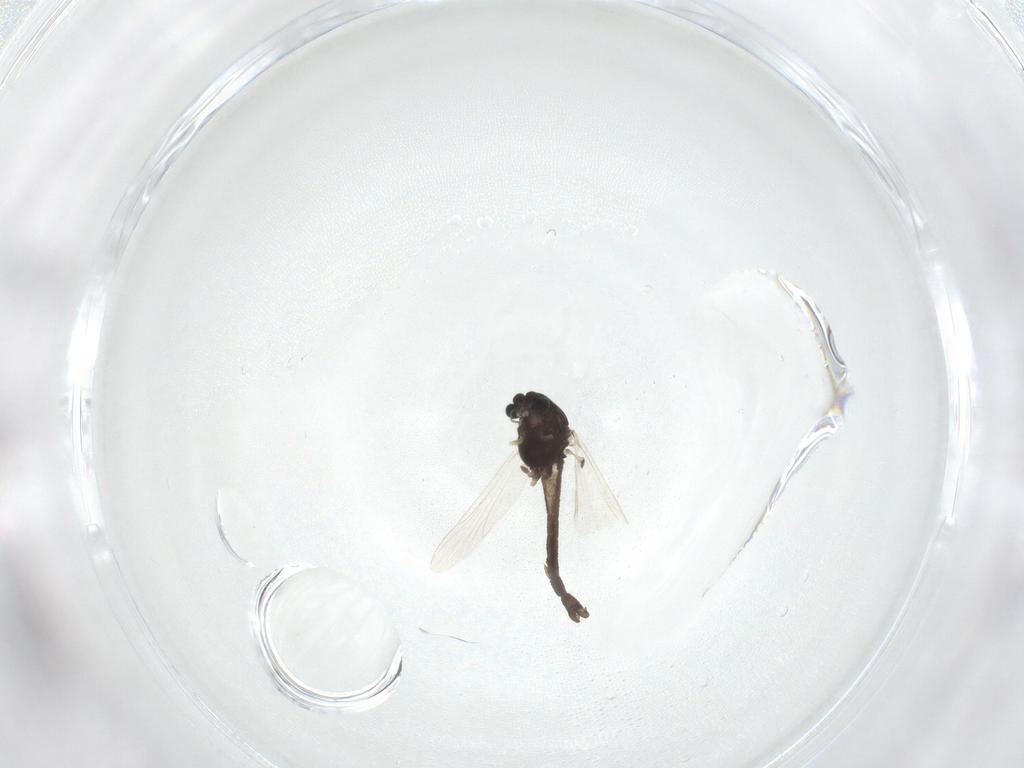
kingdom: Animalia
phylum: Arthropoda
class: Insecta
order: Diptera
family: Chironomidae
